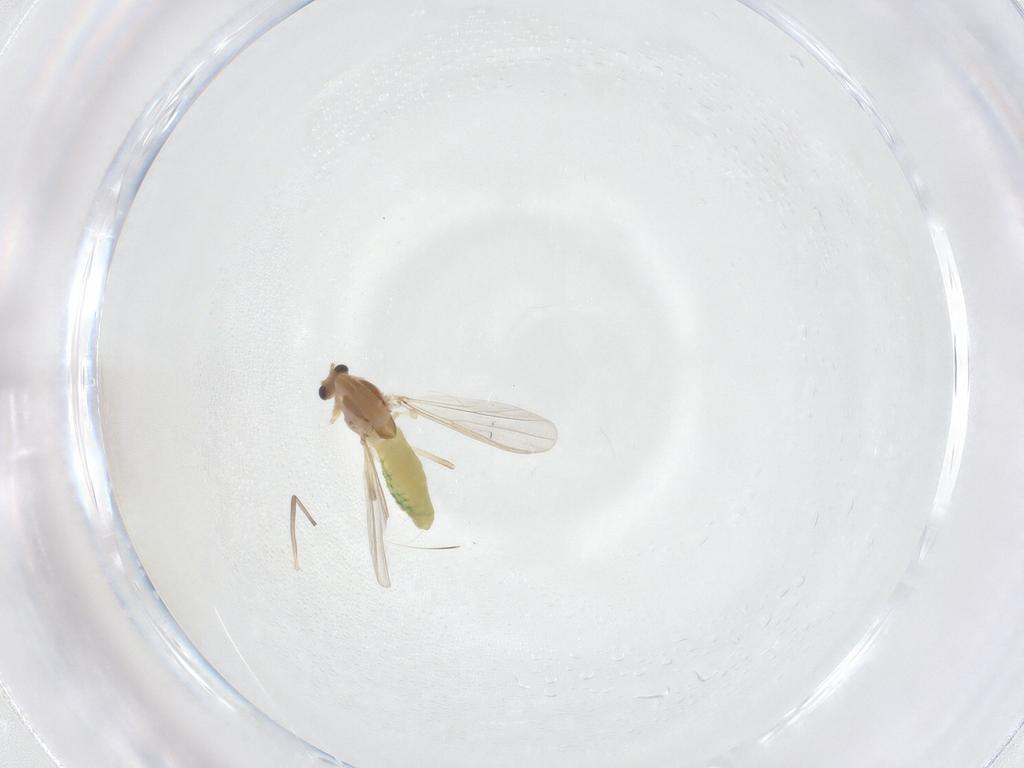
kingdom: Animalia
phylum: Arthropoda
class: Insecta
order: Diptera
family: Chironomidae
